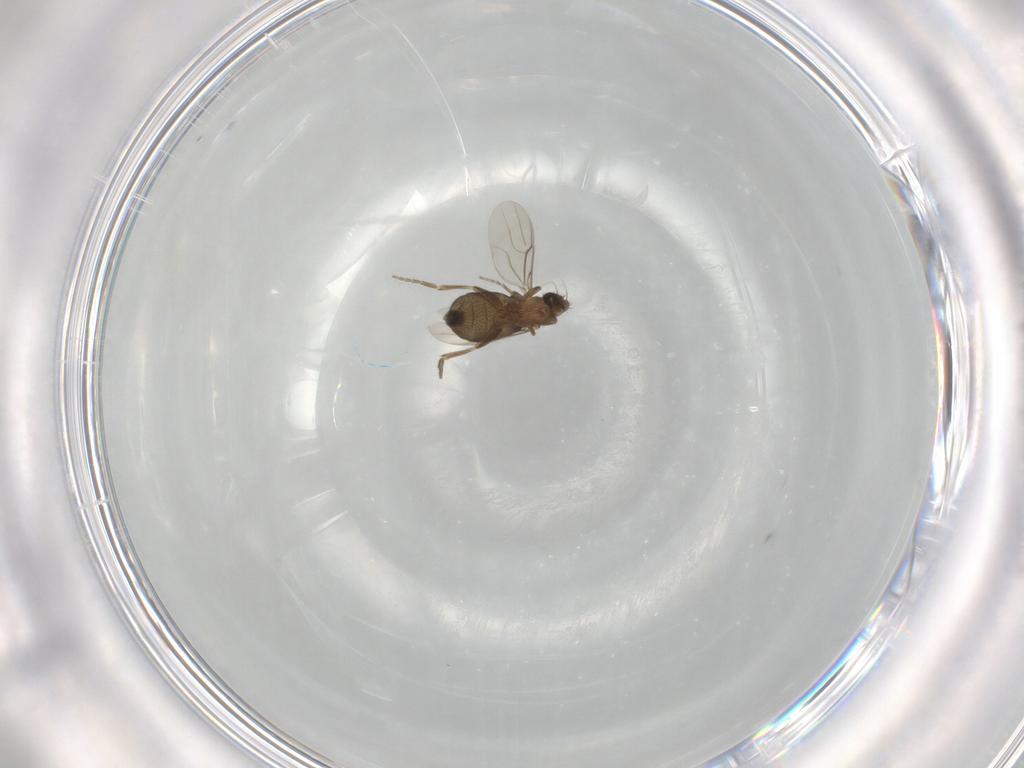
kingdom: Animalia
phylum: Arthropoda
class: Insecta
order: Diptera
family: Phoridae
